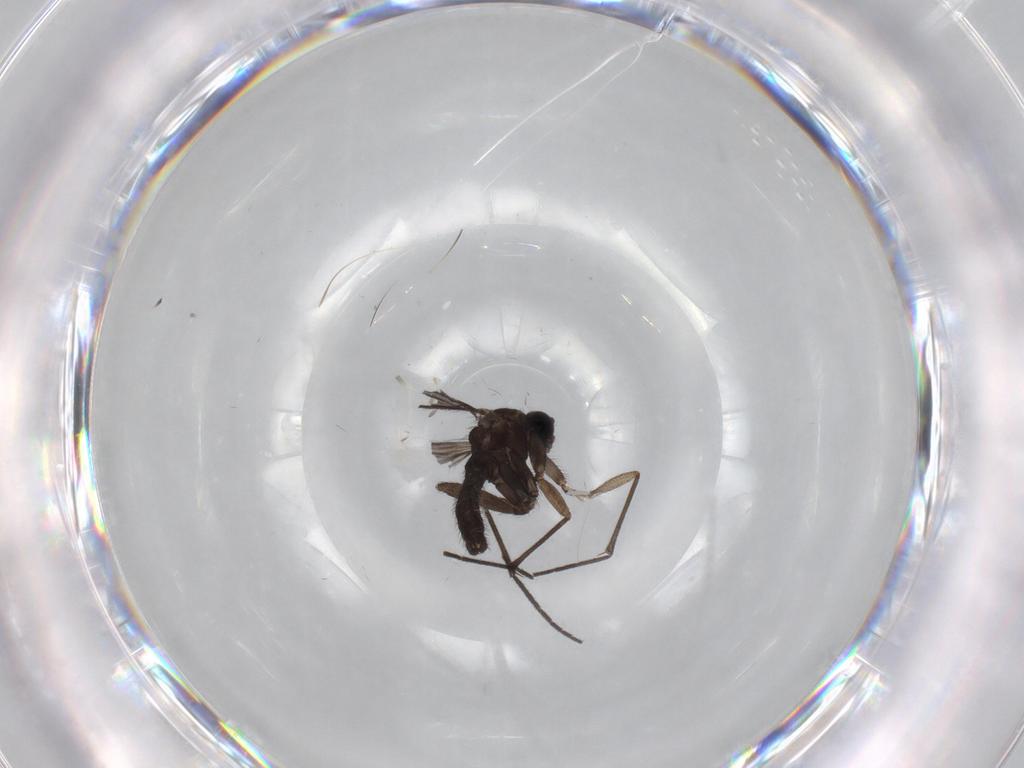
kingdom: Animalia
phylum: Arthropoda
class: Insecta
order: Diptera
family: Sciaridae
